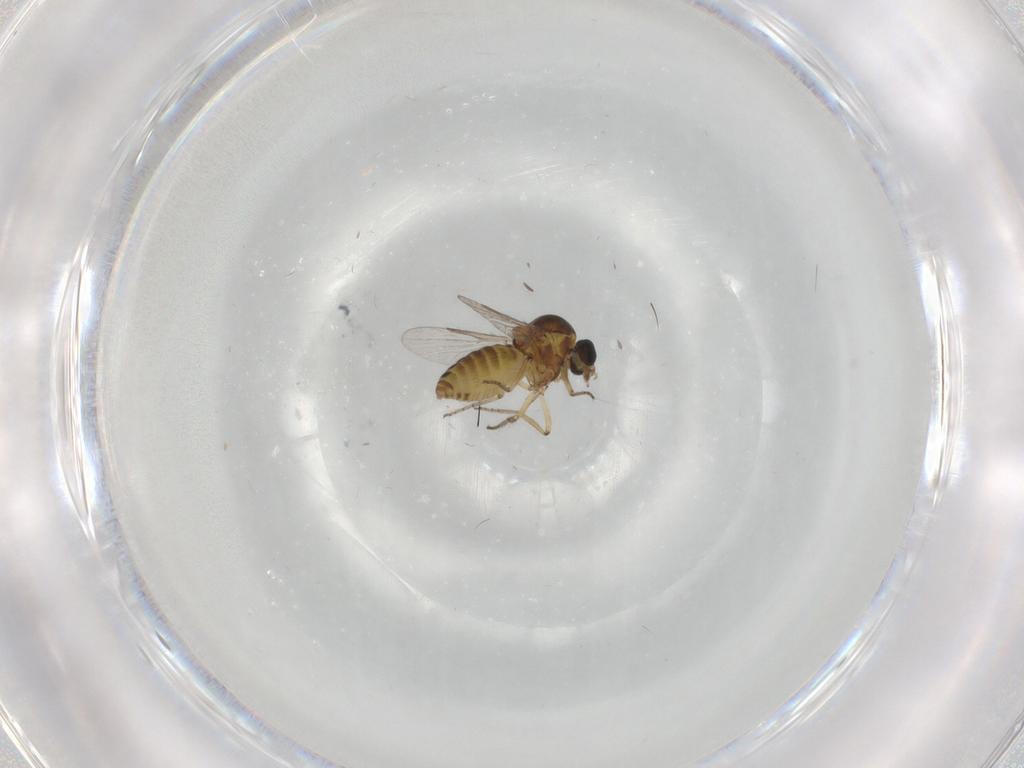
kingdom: Animalia
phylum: Arthropoda
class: Insecta
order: Diptera
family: Ceratopogonidae
